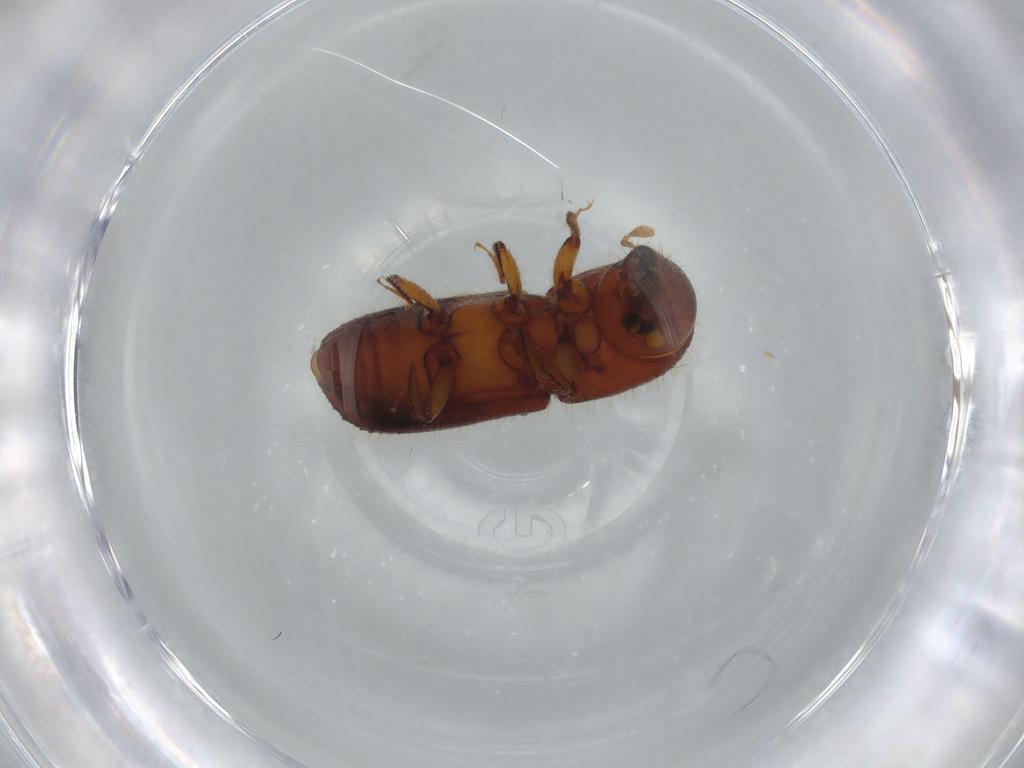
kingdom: Animalia
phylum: Arthropoda
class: Insecta
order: Coleoptera
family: Curculionidae
